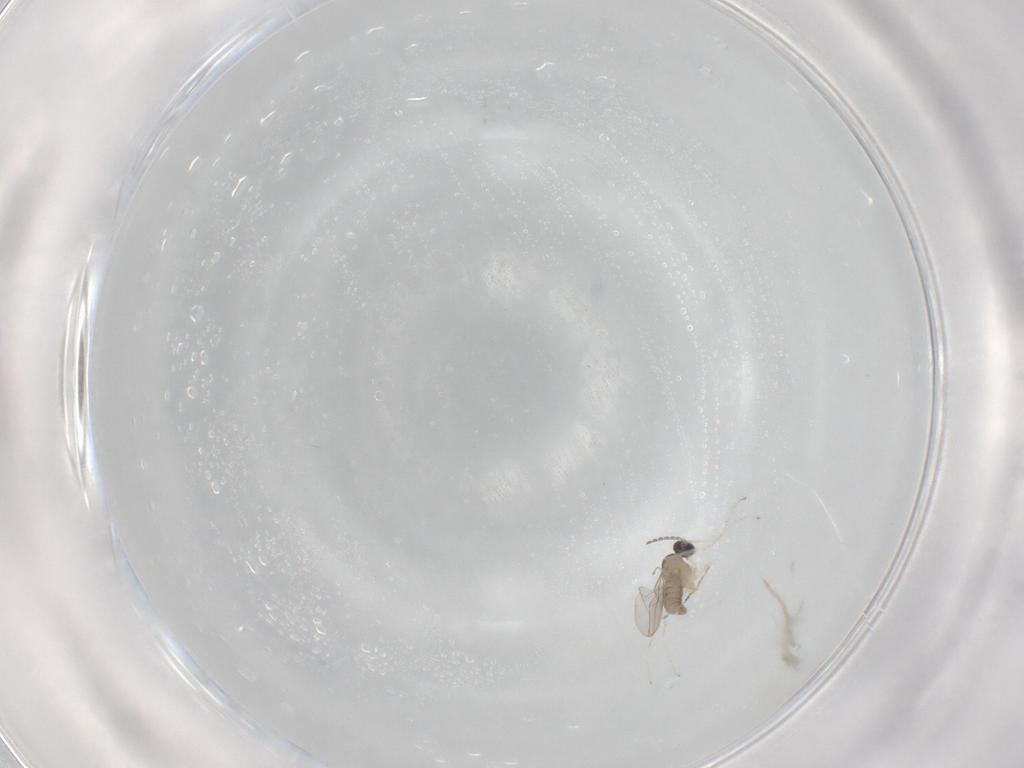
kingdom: Animalia
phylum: Arthropoda
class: Insecta
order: Diptera
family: Cecidomyiidae
